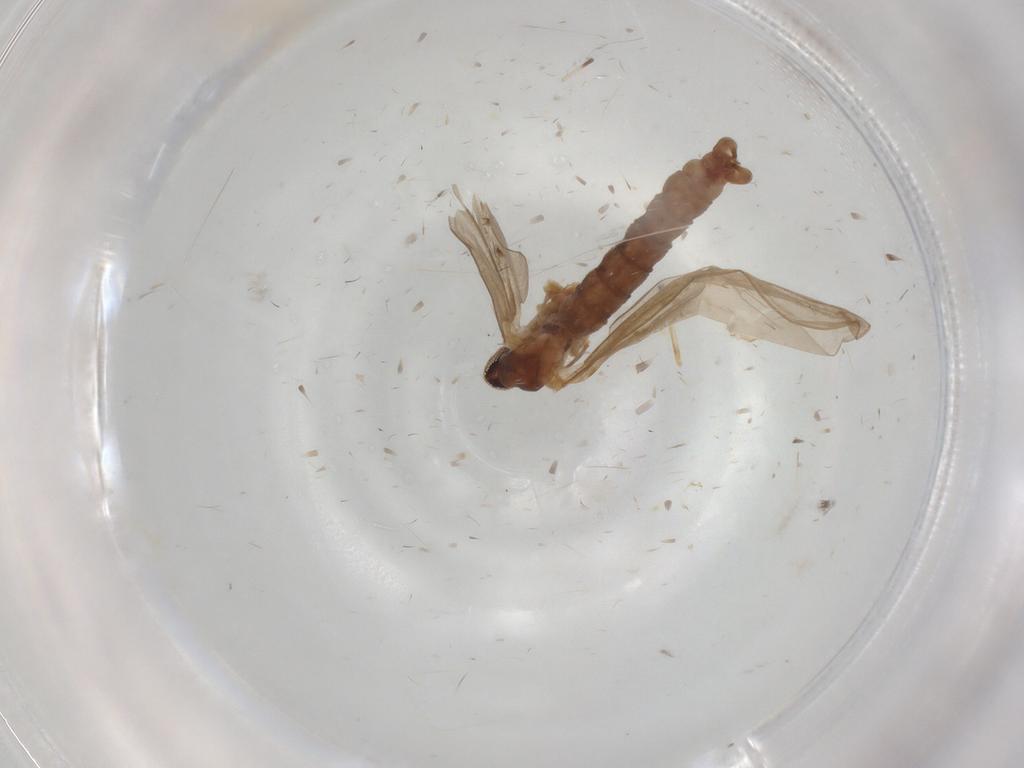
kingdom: Animalia
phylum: Arthropoda
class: Insecta
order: Diptera
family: Cecidomyiidae
